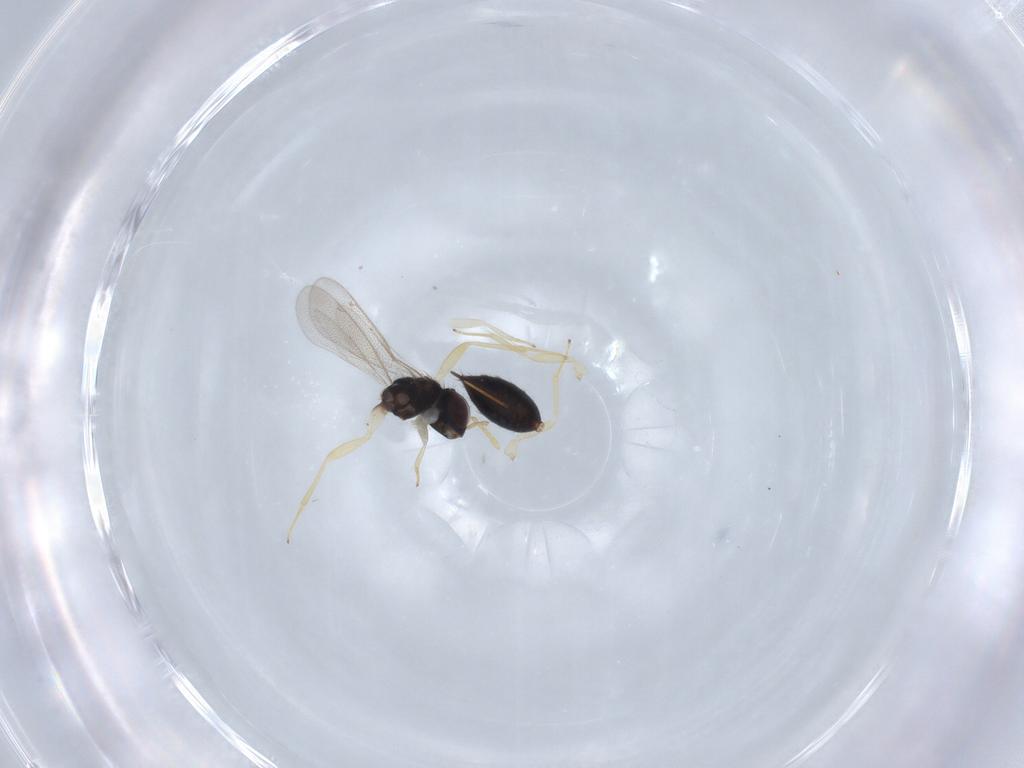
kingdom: Animalia
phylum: Arthropoda
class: Insecta
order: Hymenoptera
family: Eulophidae
